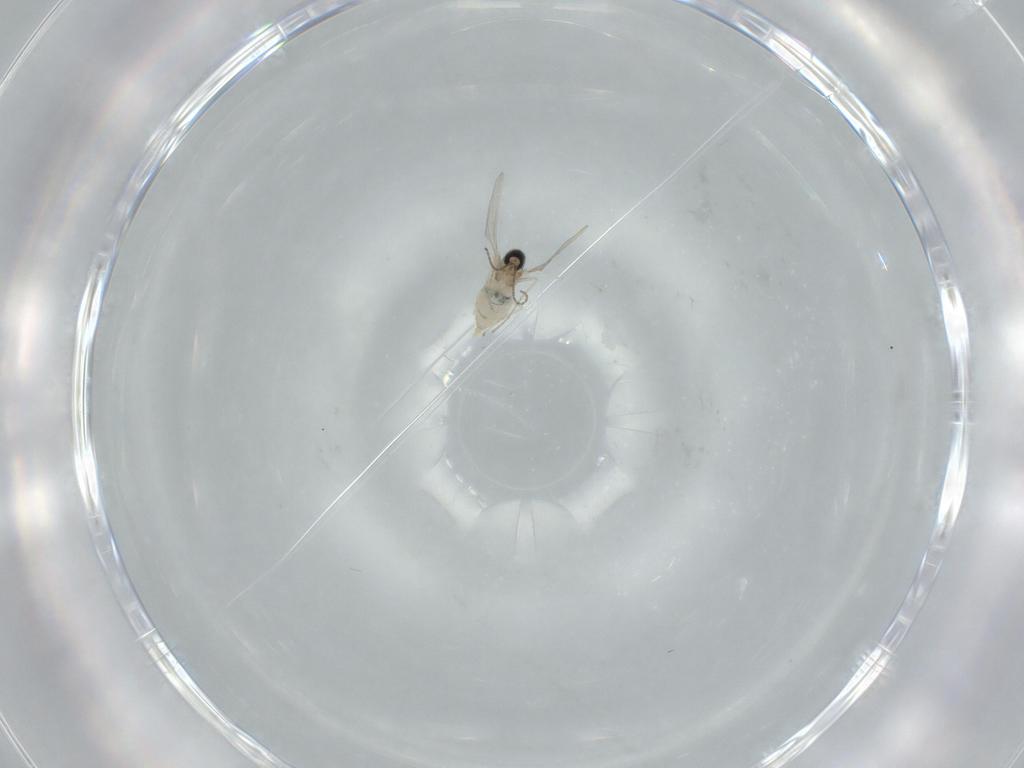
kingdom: Animalia
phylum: Arthropoda
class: Insecta
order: Diptera
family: Cecidomyiidae
